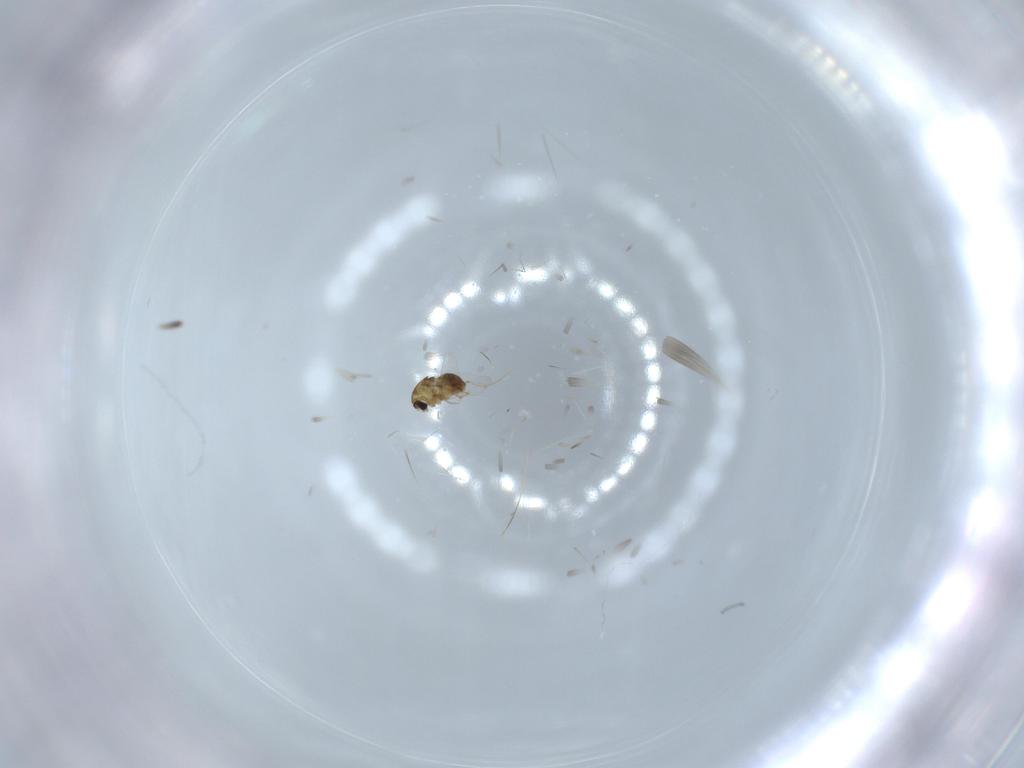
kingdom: Animalia
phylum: Arthropoda
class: Insecta
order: Diptera
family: Chironomidae
